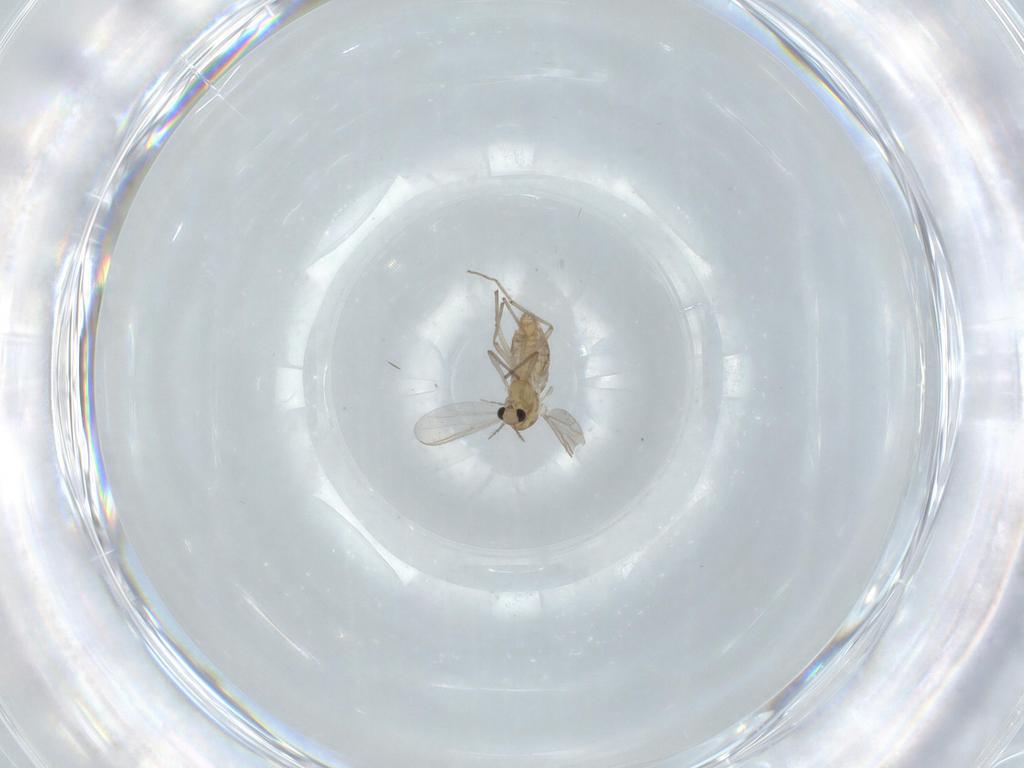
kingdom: Animalia
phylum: Arthropoda
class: Insecta
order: Diptera
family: Chironomidae
